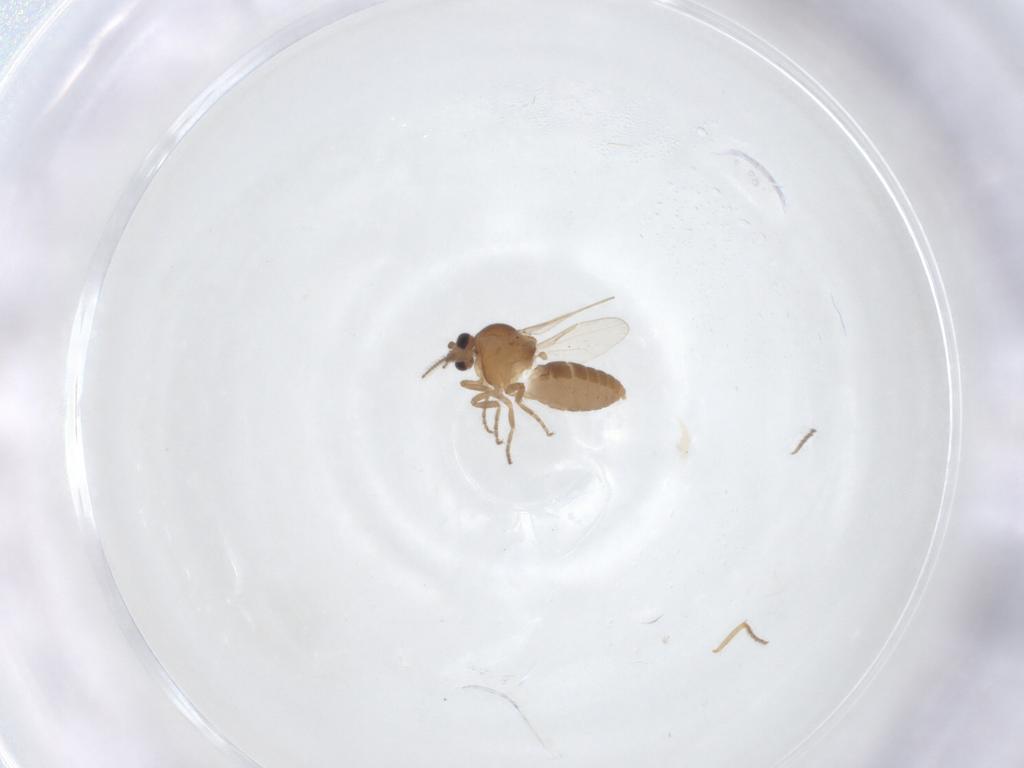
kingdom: Animalia
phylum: Arthropoda
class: Insecta
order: Diptera
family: Ceratopogonidae
